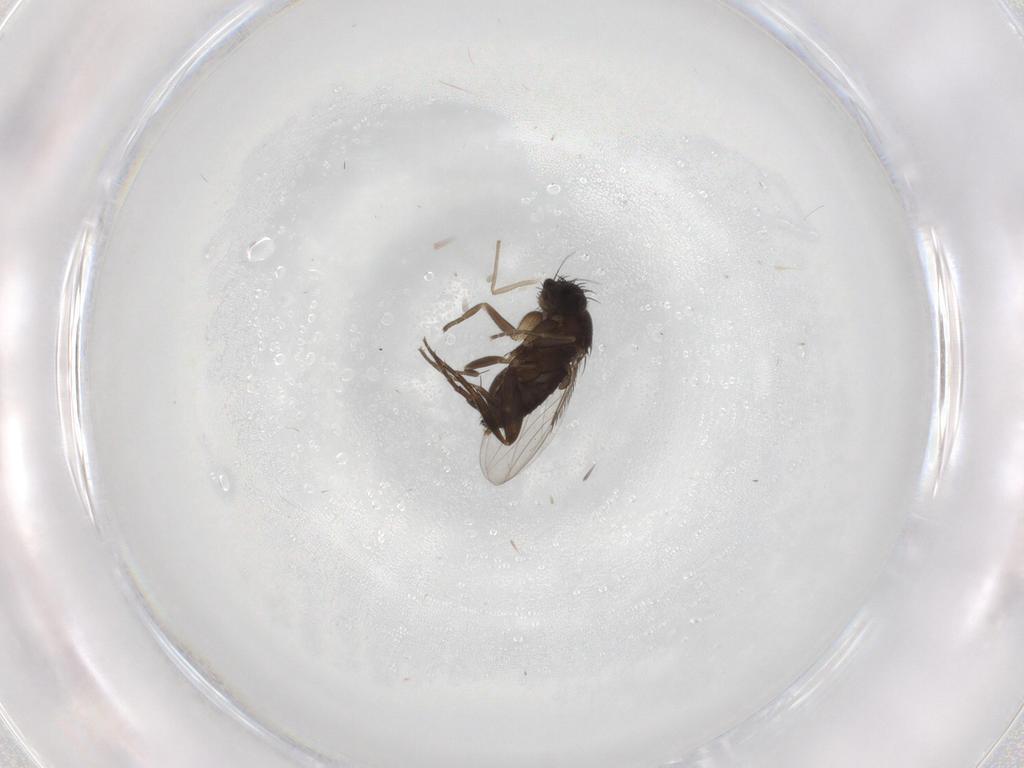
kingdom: Animalia
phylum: Arthropoda
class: Insecta
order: Diptera
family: Phoridae
